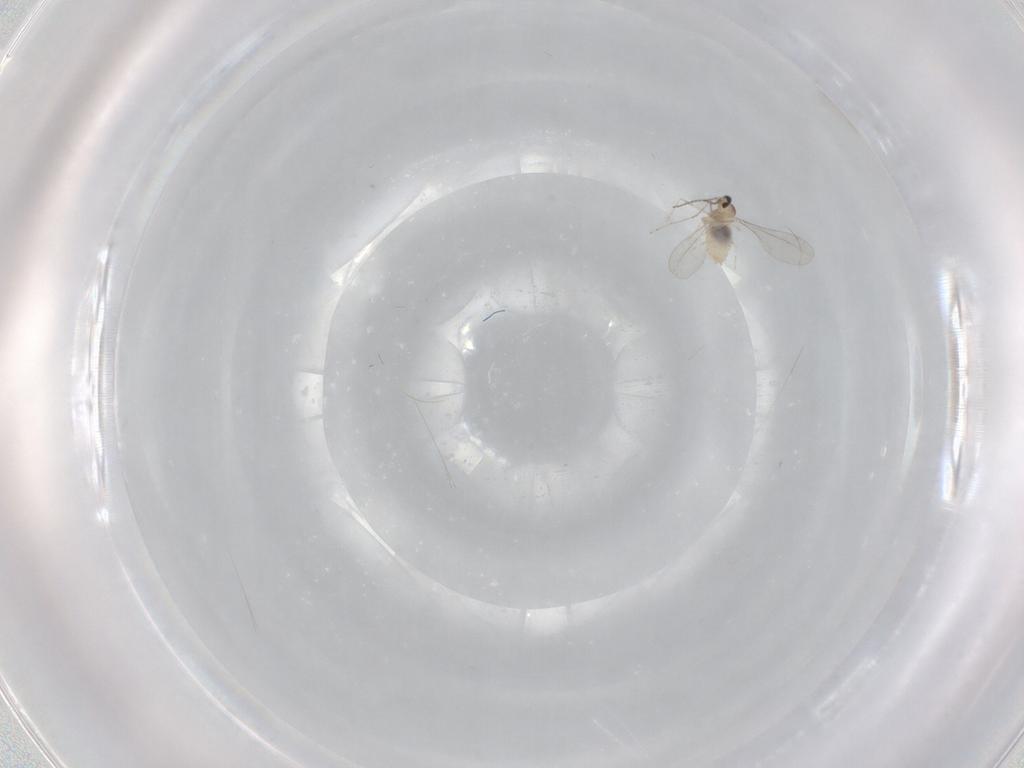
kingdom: Animalia
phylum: Arthropoda
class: Insecta
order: Diptera
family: Cecidomyiidae
